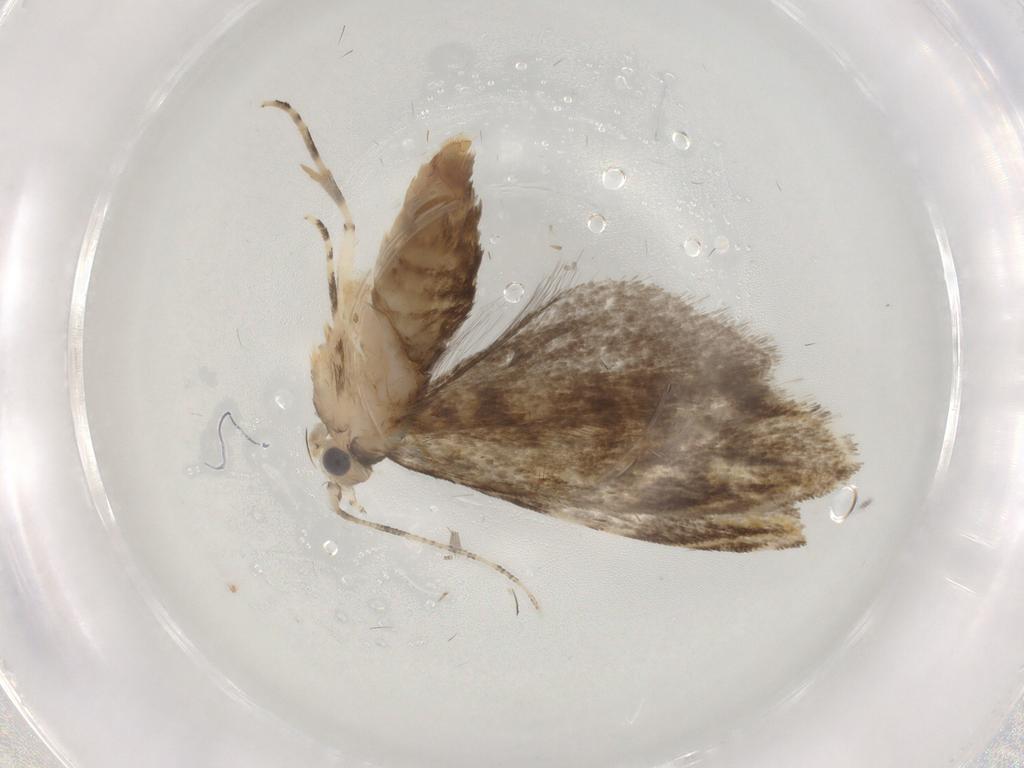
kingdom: Animalia
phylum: Arthropoda
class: Insecta
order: Lepidoptera
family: Tineidae
